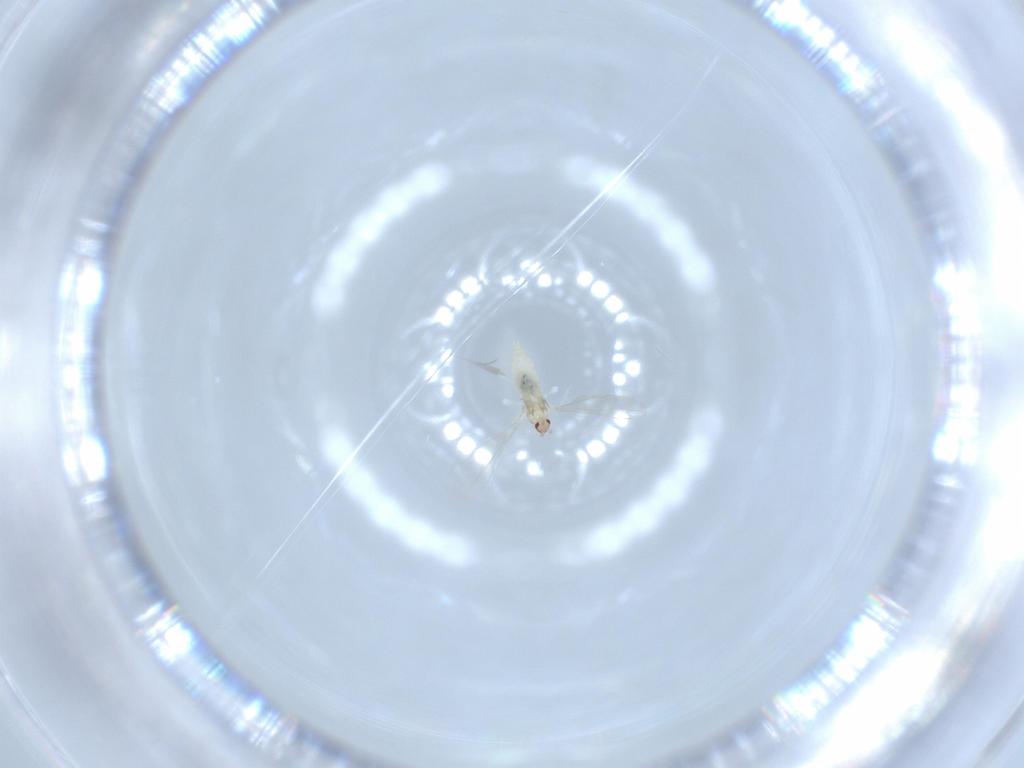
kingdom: Animalia
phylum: Arthropoda
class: Insecta
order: Diptera
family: Cecidomyiidae
